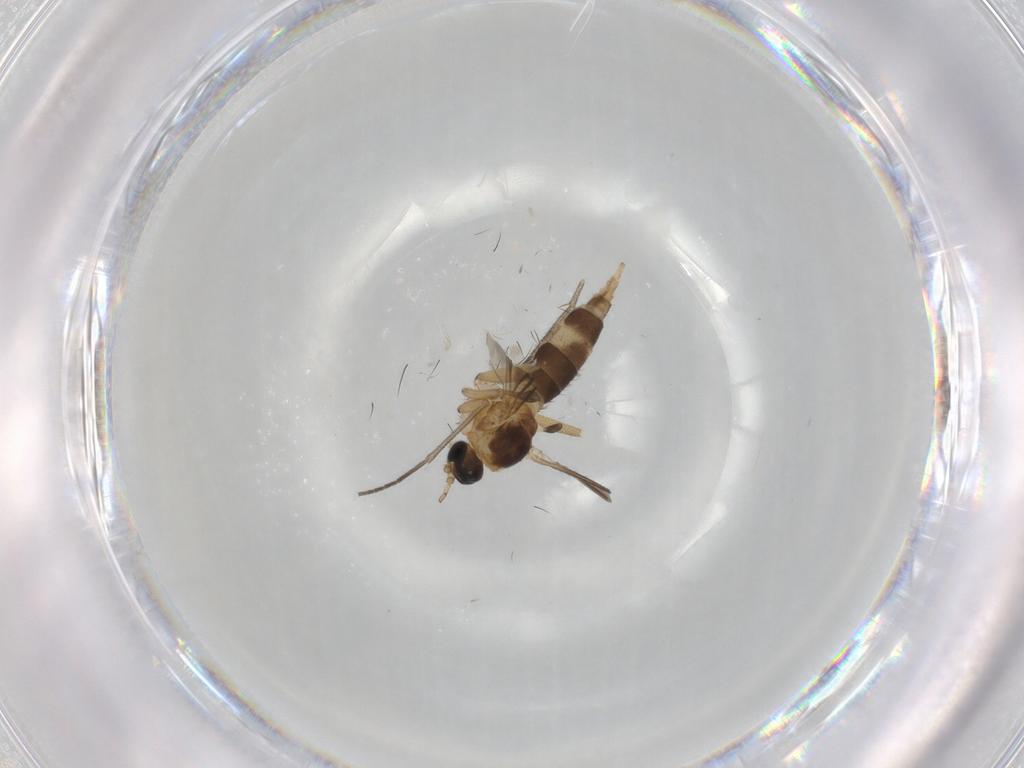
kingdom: Animalia
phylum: Arthropoda
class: Insecta
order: Diptera
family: Sciaridae
